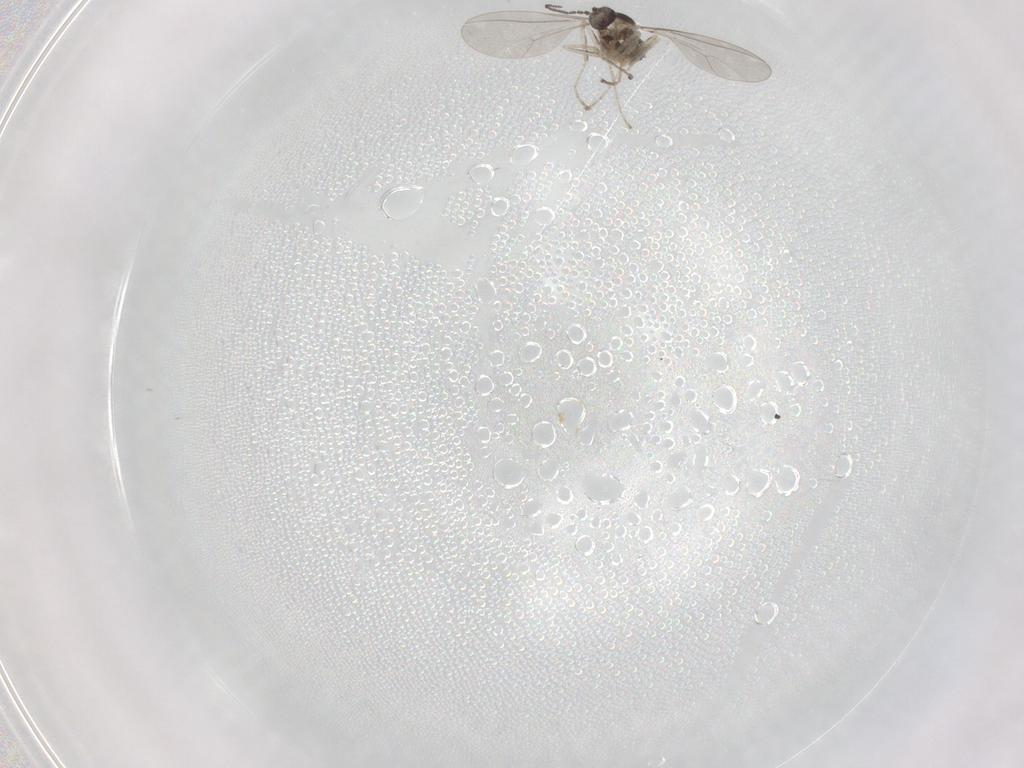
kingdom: Animalia
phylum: Arthropoda
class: Insecta
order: Diptera
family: Cecidomyiidae
